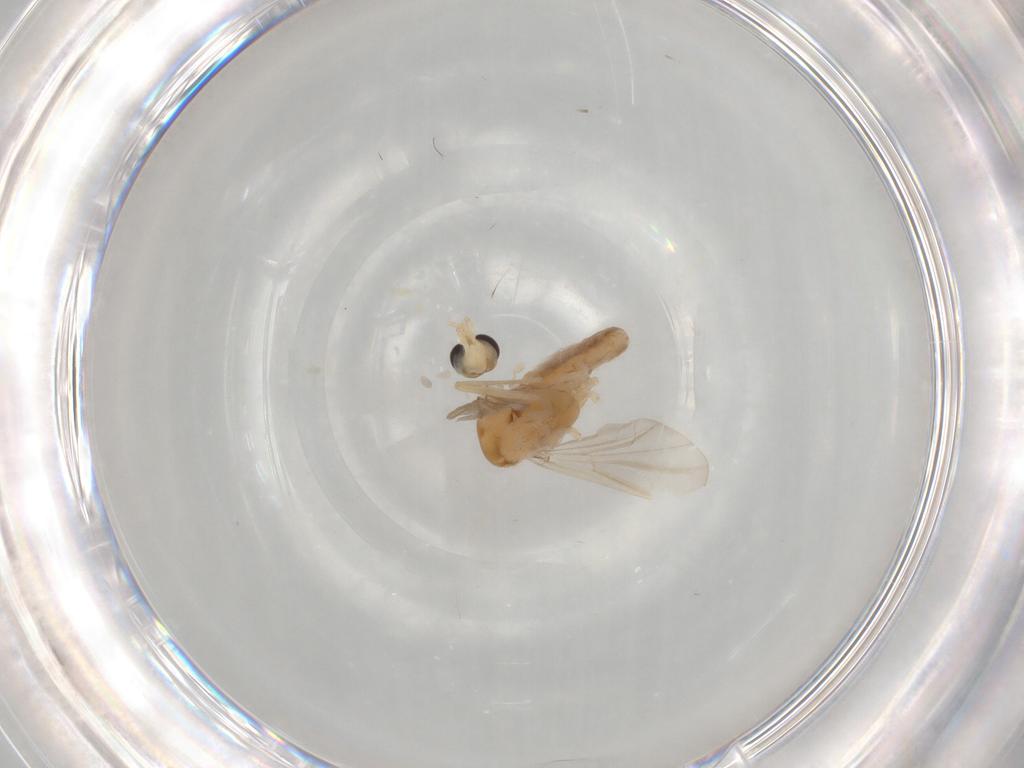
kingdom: Animalia
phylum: Arthropoda
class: Insecta
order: Diptera
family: Chironomidae
